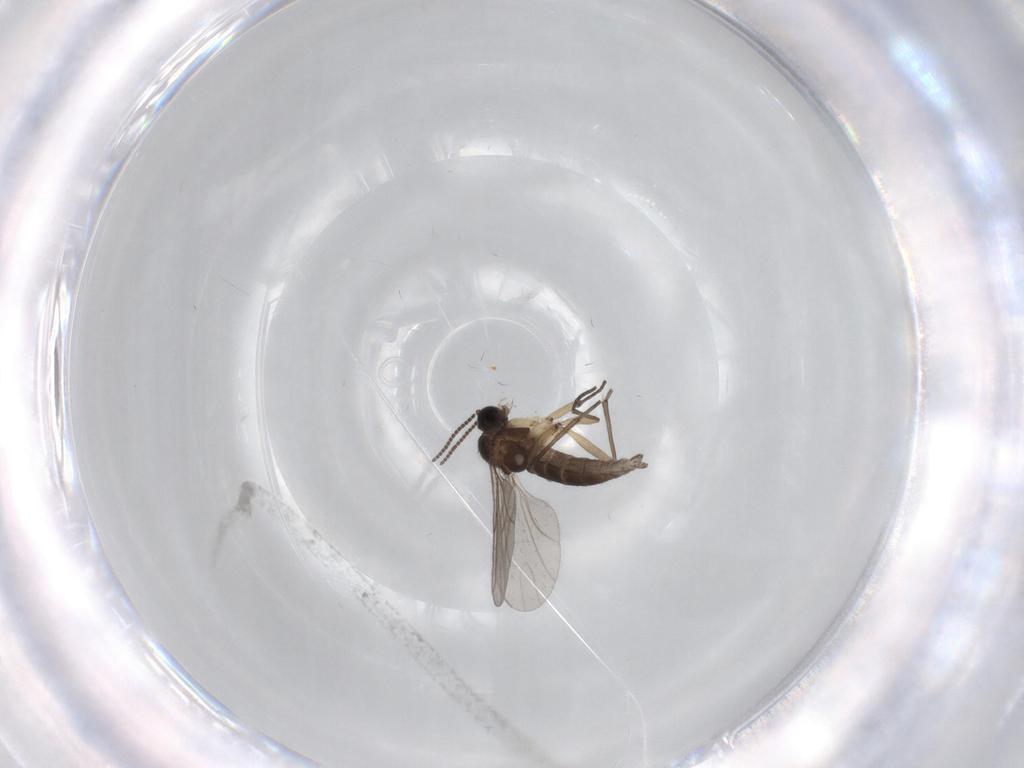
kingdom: Animalia
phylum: Arthropoda
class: Insecta
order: Diptera
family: Sciaridae
